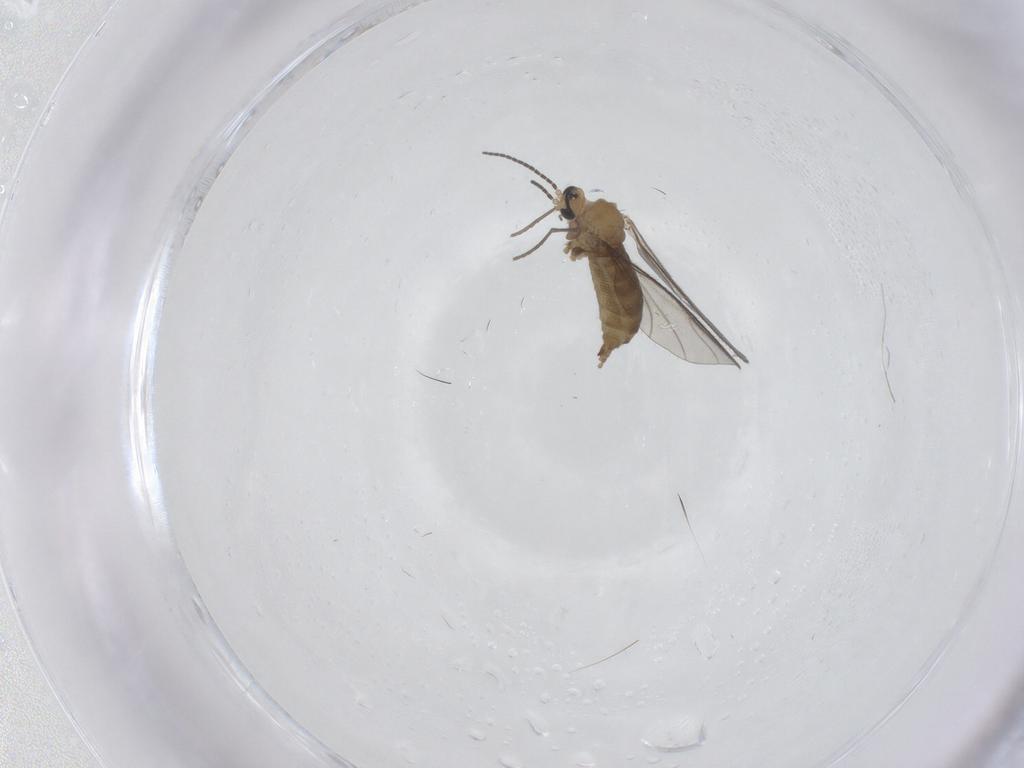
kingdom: Animalia
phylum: Arthropoda
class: Insecta
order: Diptera
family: Sciaridae
